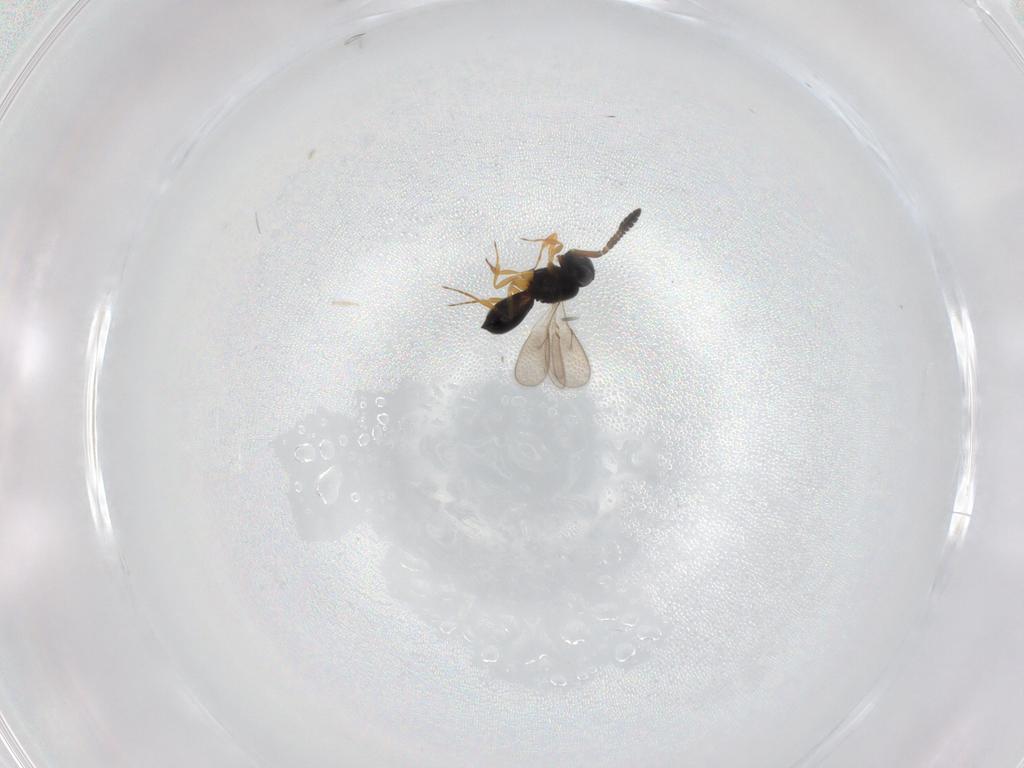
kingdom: Animalia
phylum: Arthropoda
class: Insecta
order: Hymenoptera
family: Scelionidae
